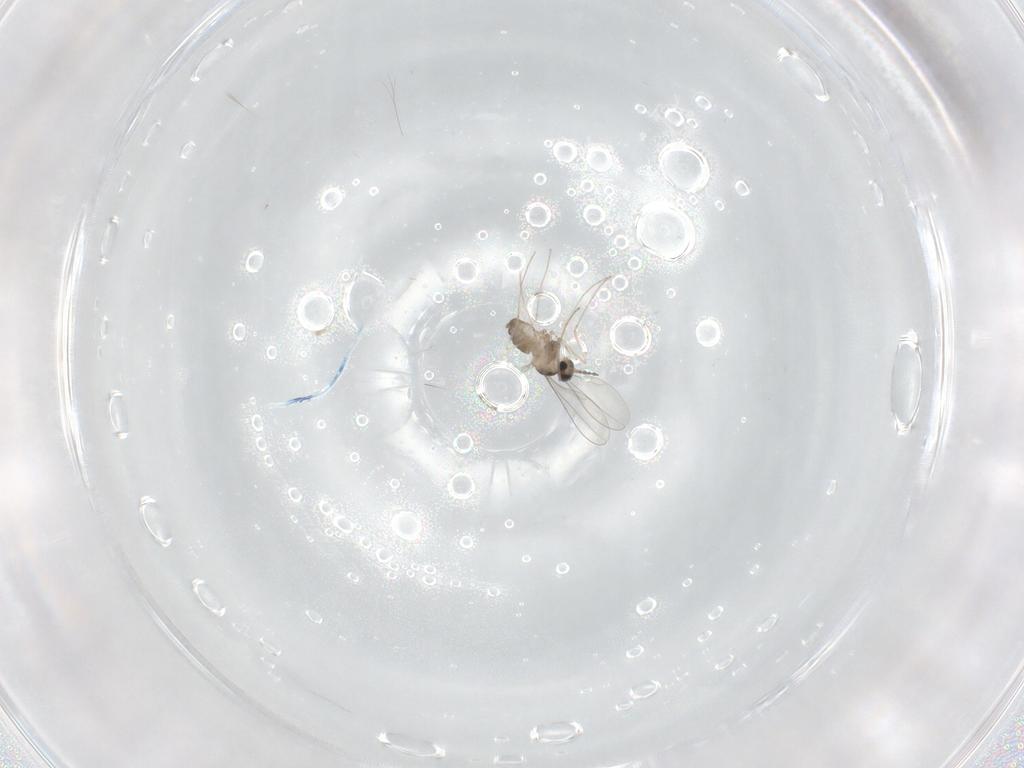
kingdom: Animalia
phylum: Arthropoda
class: Insecta
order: Diptera
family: Cecidomyiidae
